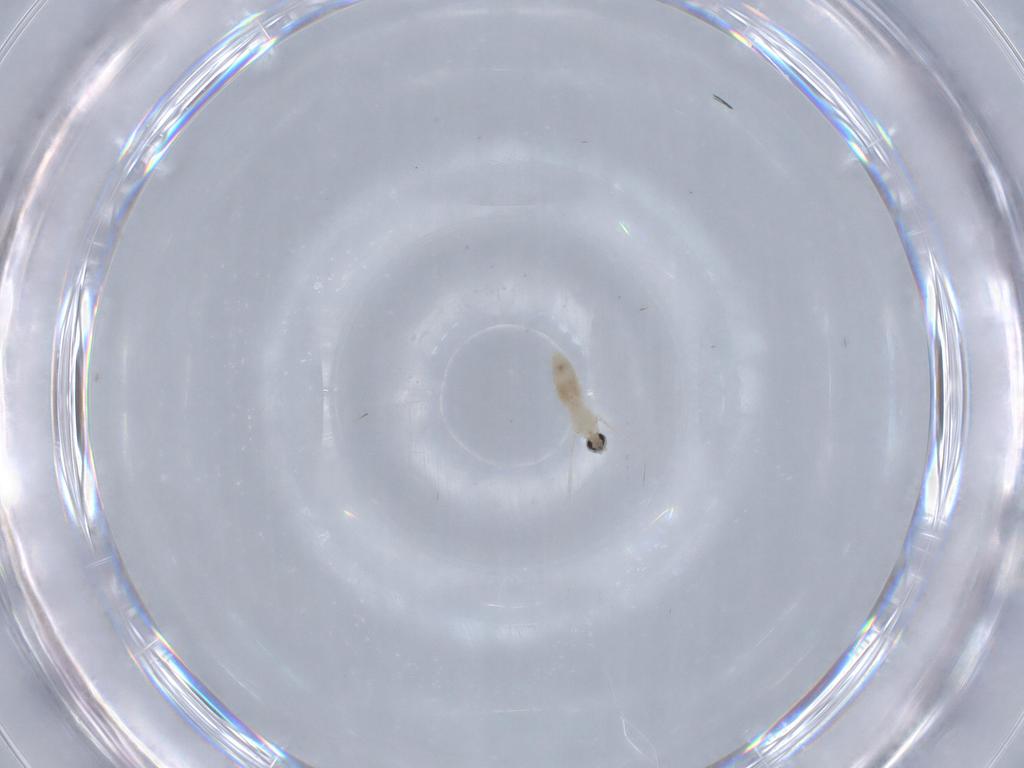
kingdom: Animalia
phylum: Arthropoda
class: Insecta
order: Diptera
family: Cecidomyiidae
